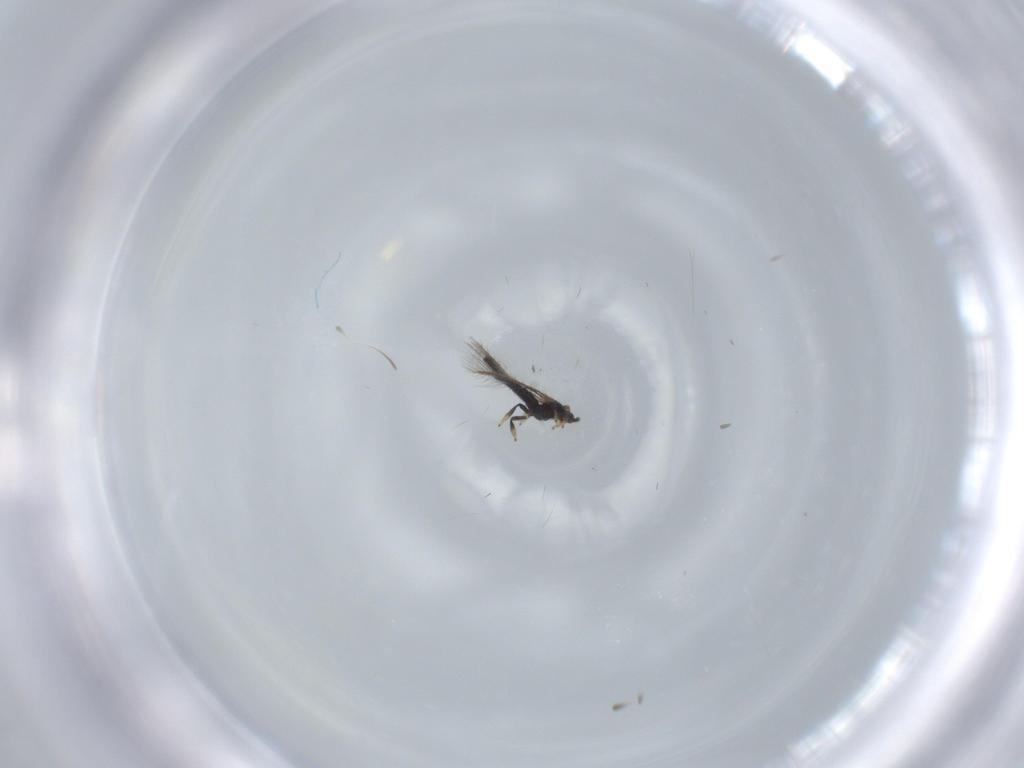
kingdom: Animalia
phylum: Arthropoda
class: Insecta
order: Thysanoptera
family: Thripidae
